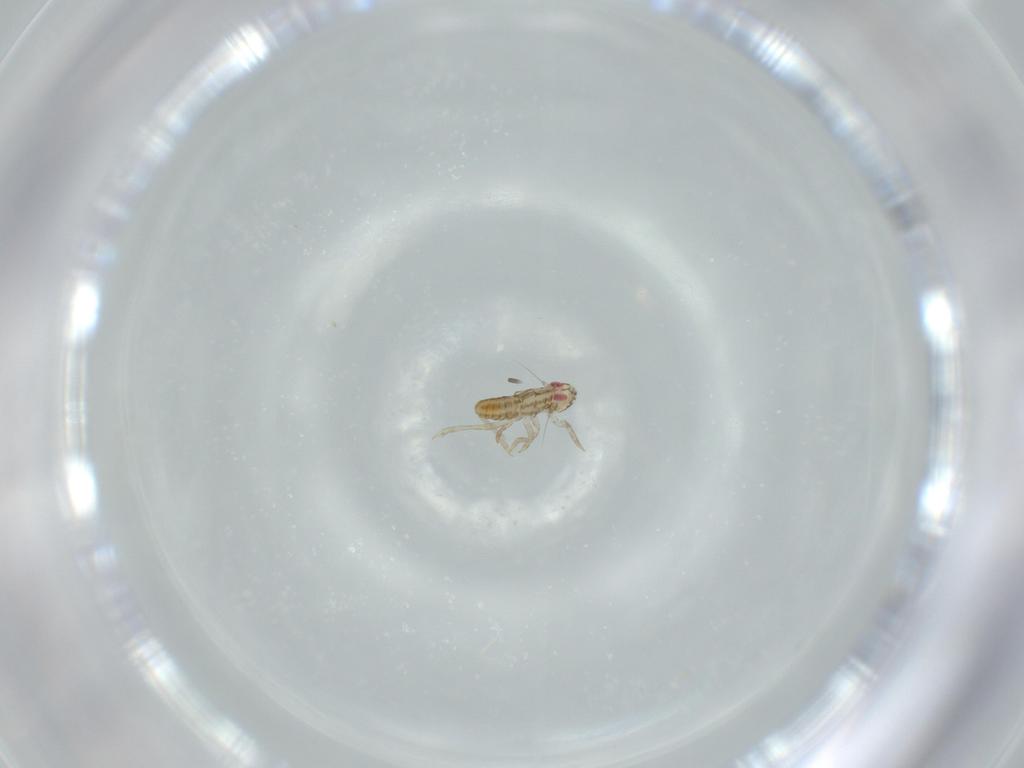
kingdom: Animalia
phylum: Arthropoda
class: Insecta
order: Hemiptera
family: Delphacidae
